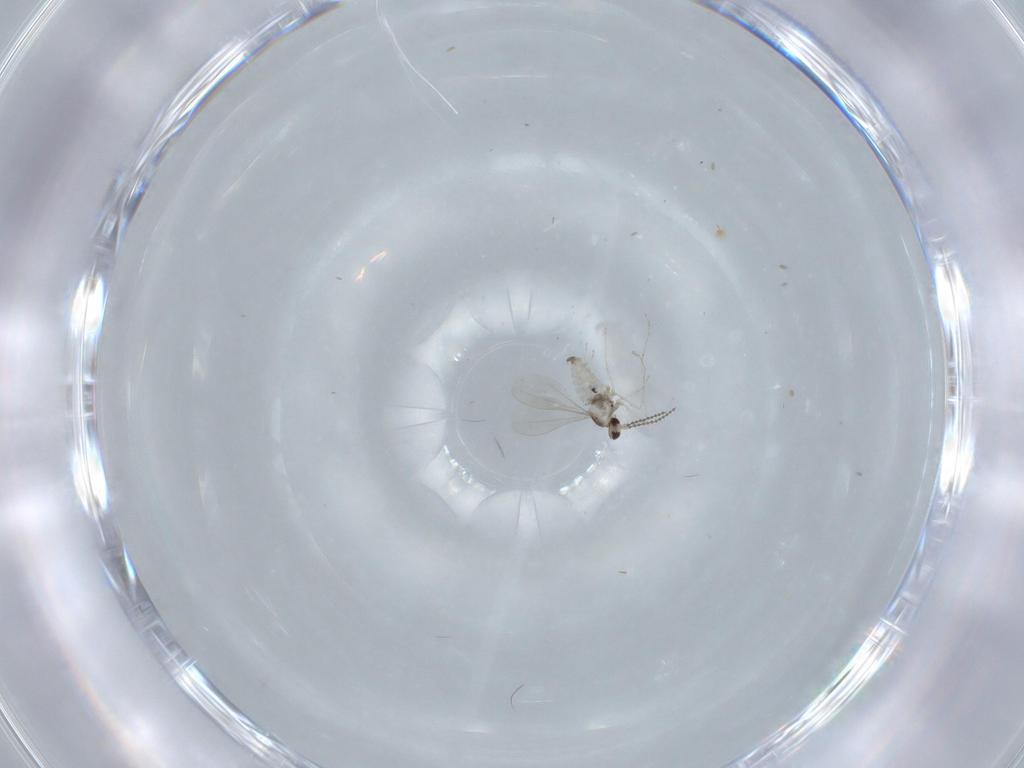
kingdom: Animalia
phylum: Arthropoda
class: Insecta
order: Diptera
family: Cecidomyiidae
